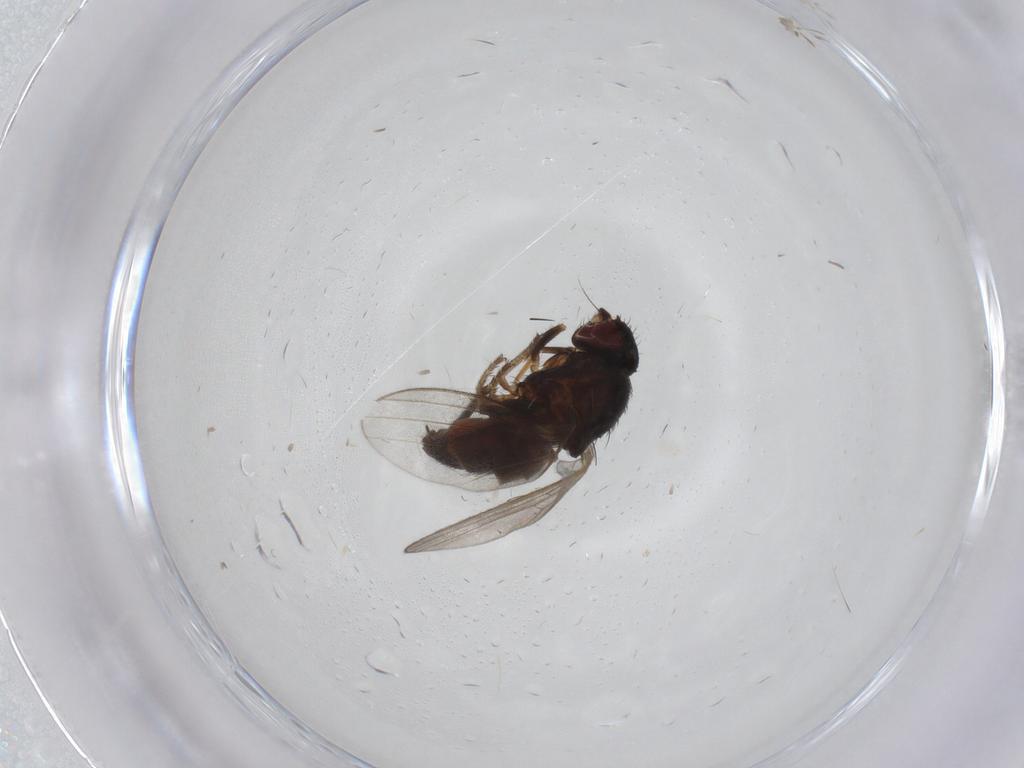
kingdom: Animalia
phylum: Arthropoda
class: Insecta
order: Diptera
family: Milichiidae
